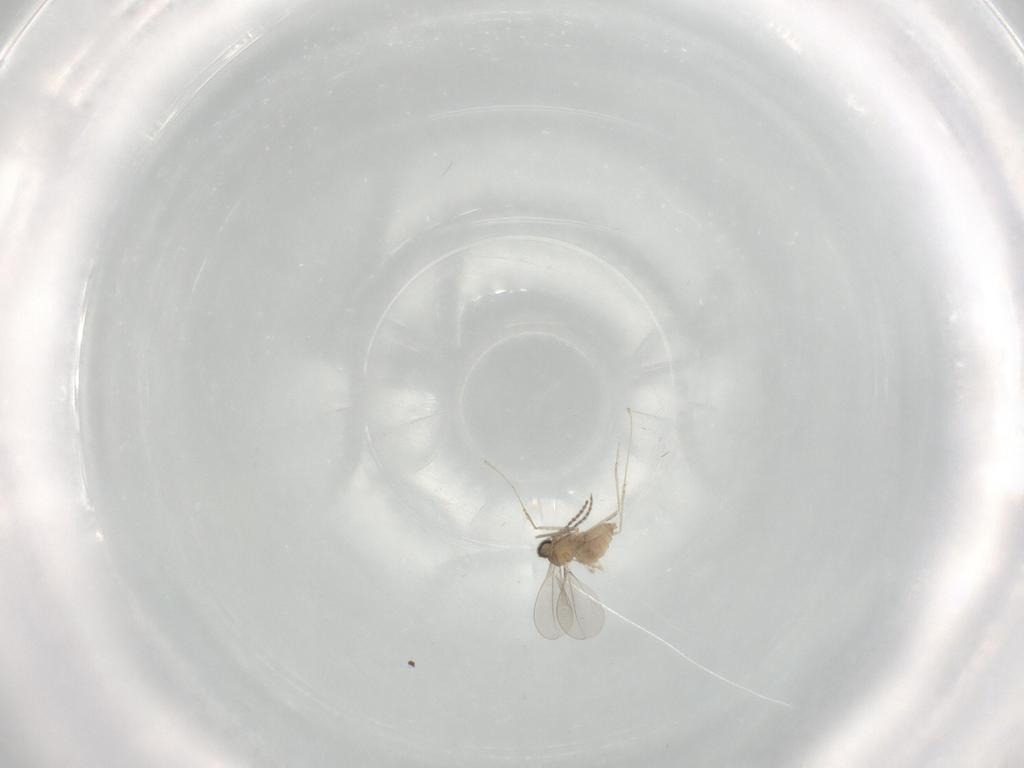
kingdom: Animalia
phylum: Arthropoda
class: Insecta
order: Diptera
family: Cecidomyiidae
